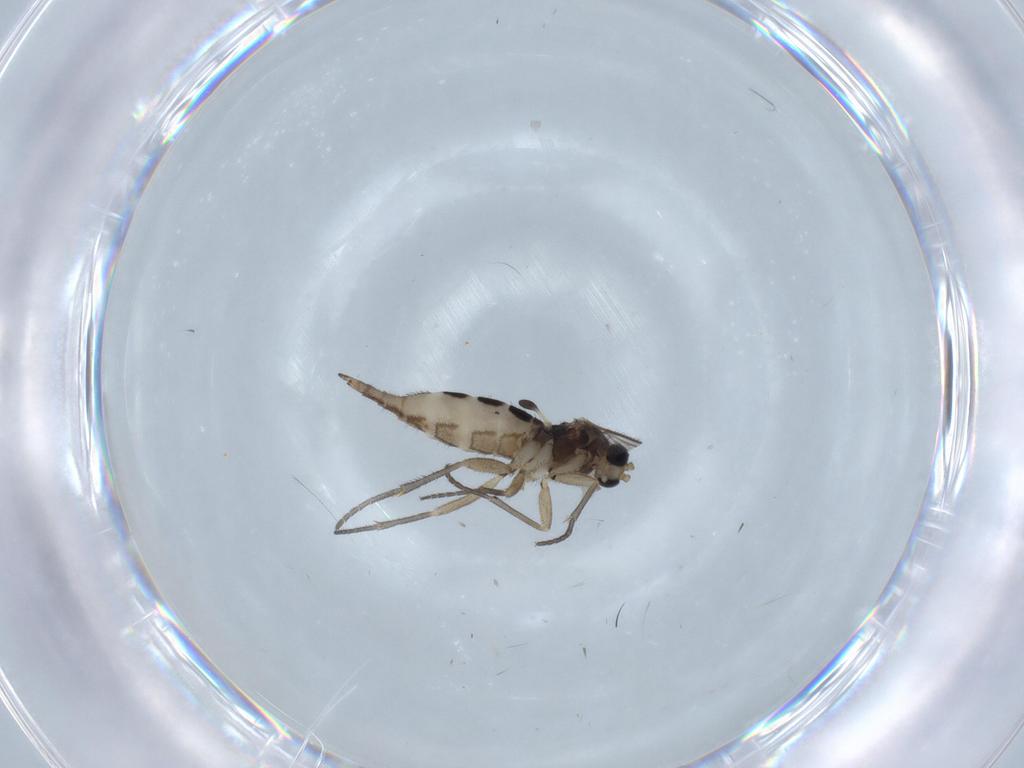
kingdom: Animalia
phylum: Arthropoda
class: Insecta
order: Diptera
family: Sciaridae
